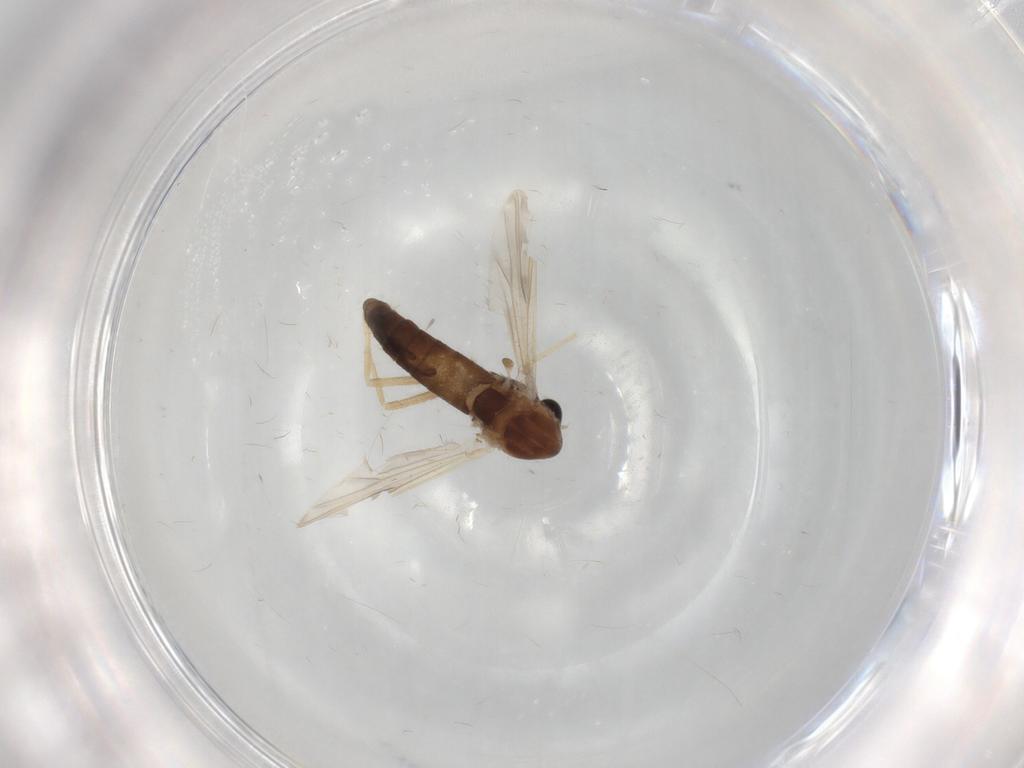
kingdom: Animalia
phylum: Arthropoda
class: Insecta
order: Diptera
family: Chironomidae
